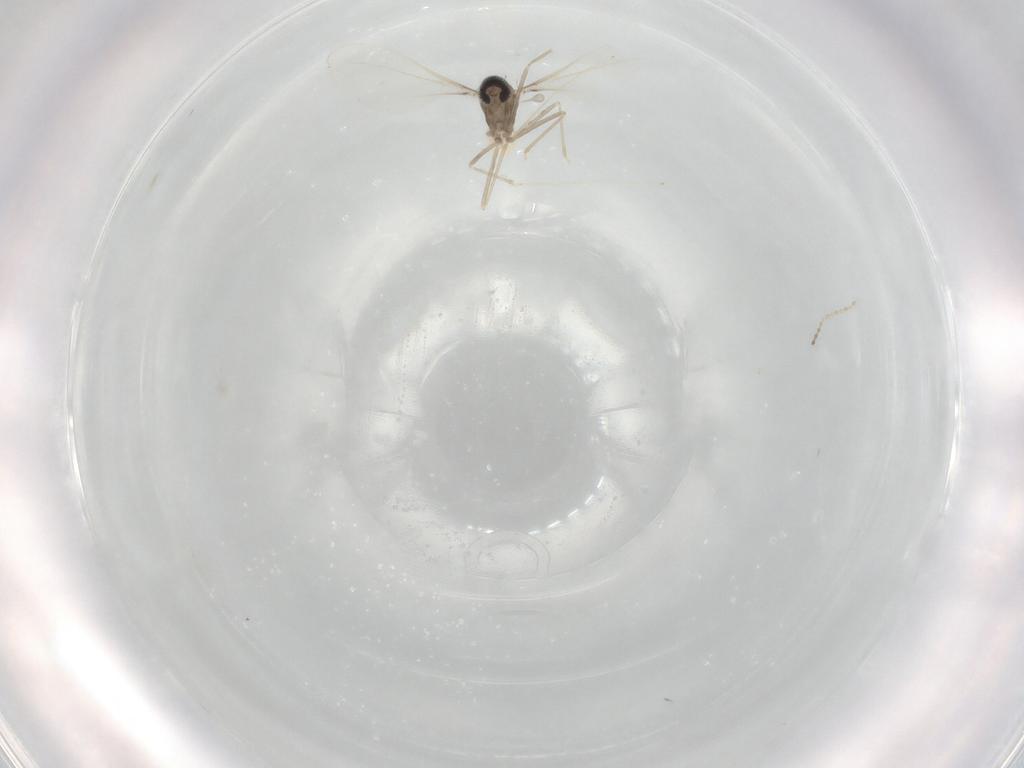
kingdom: Animalia
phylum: Arthropoda
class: Insecta
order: Diptera
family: Cecidomyiidae
